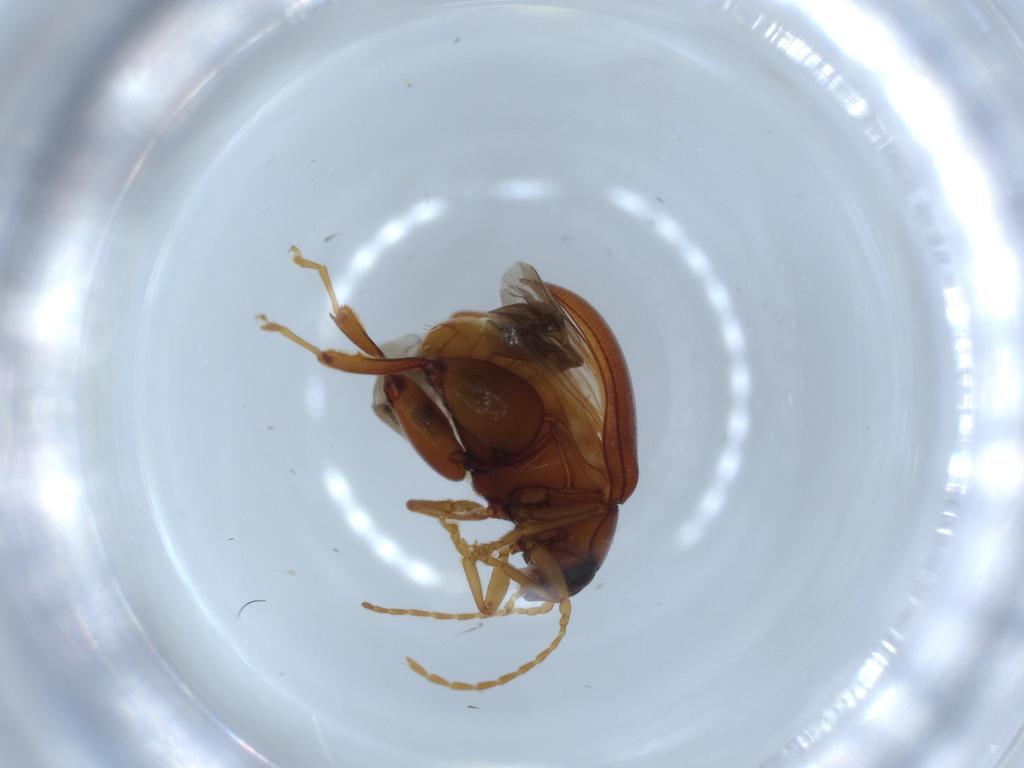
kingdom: Animalia
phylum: Arthropoda
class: Insecta
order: Coleoptera
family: Chrysomelidae
